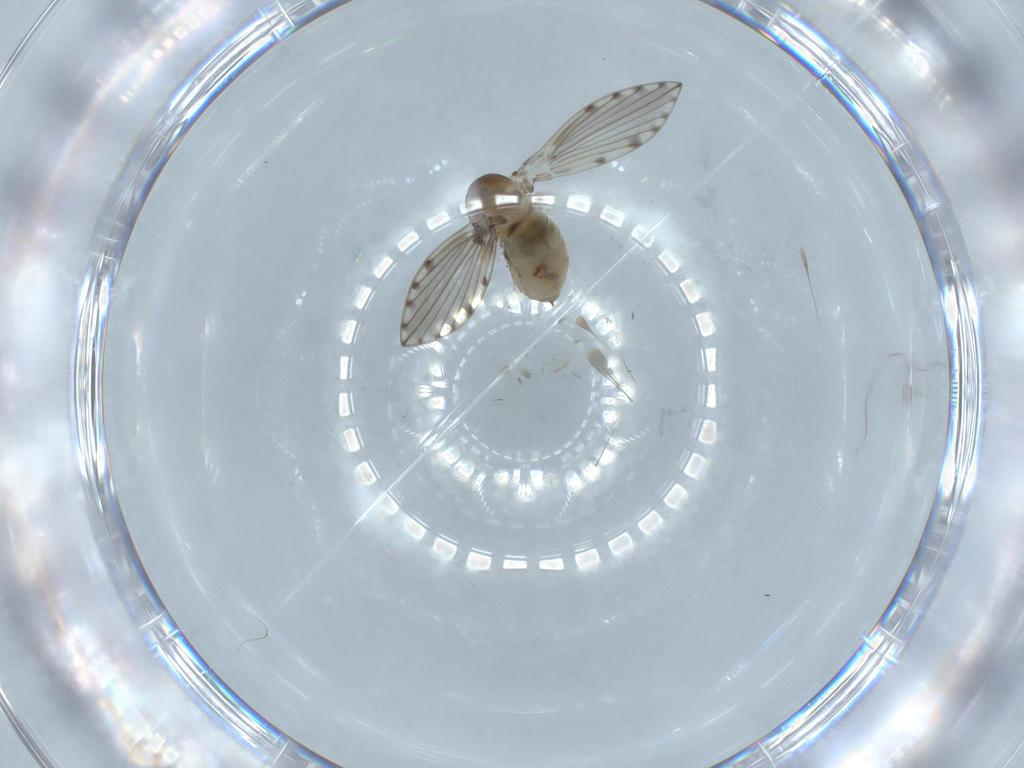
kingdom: Animalia
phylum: Arthropoda
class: Insecta
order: Diptera
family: Psychodidae
